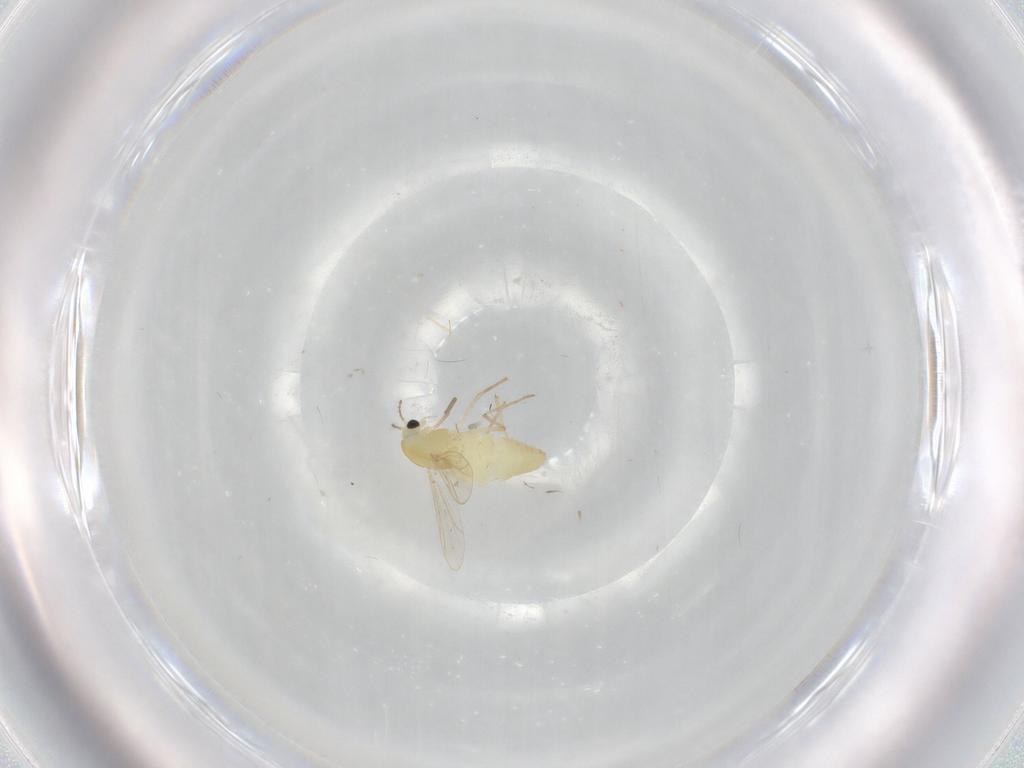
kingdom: Animalia
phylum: Arthropoda
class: Insecta
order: Diptera
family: Chironomidae
